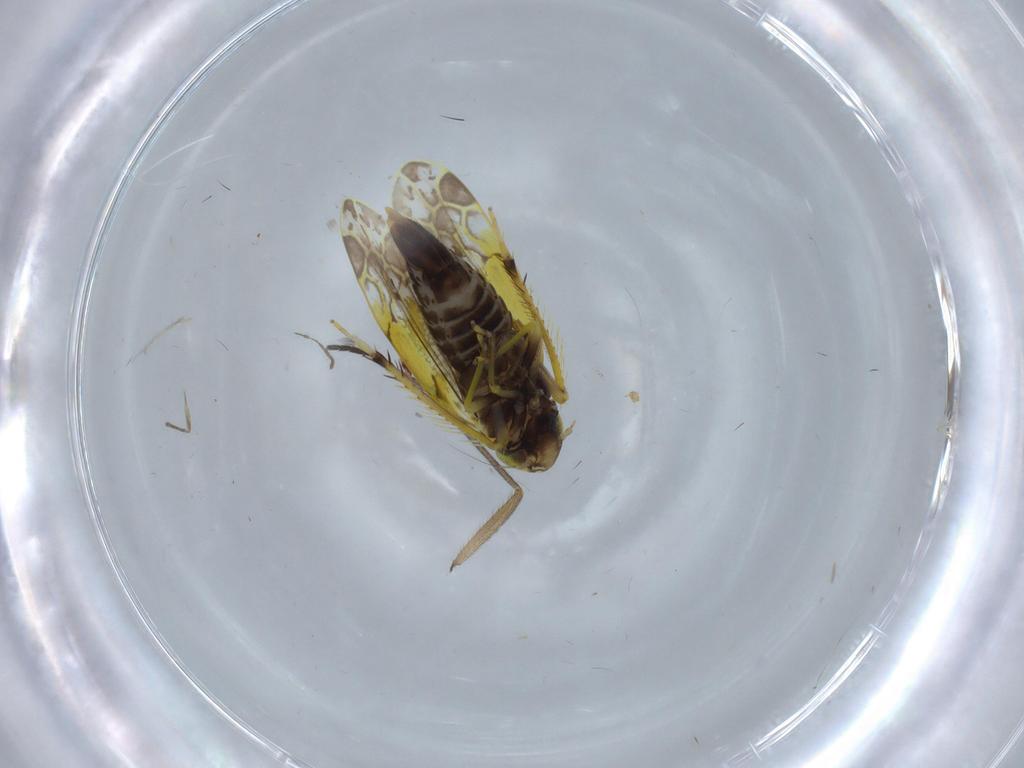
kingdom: Animalia
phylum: Arthropoda
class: Insecta
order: Hemiptera
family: Cicadellidae
